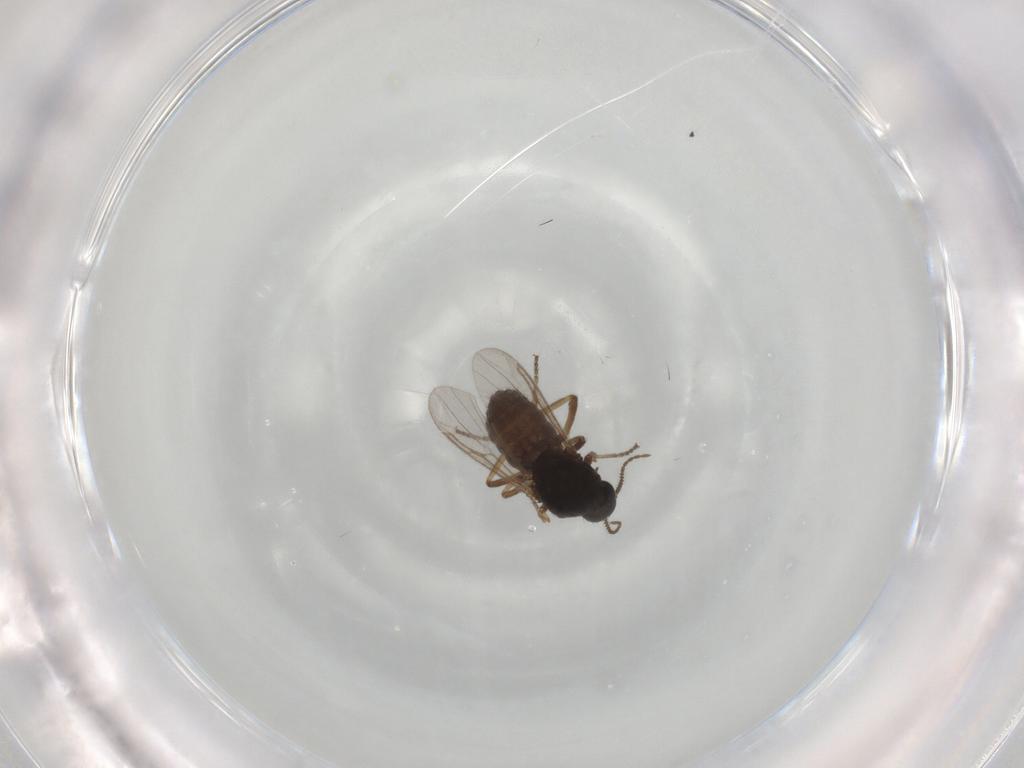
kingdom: Animalia
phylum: Arthropoda
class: Insecta
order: Diptera
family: Ceratopogonidae
